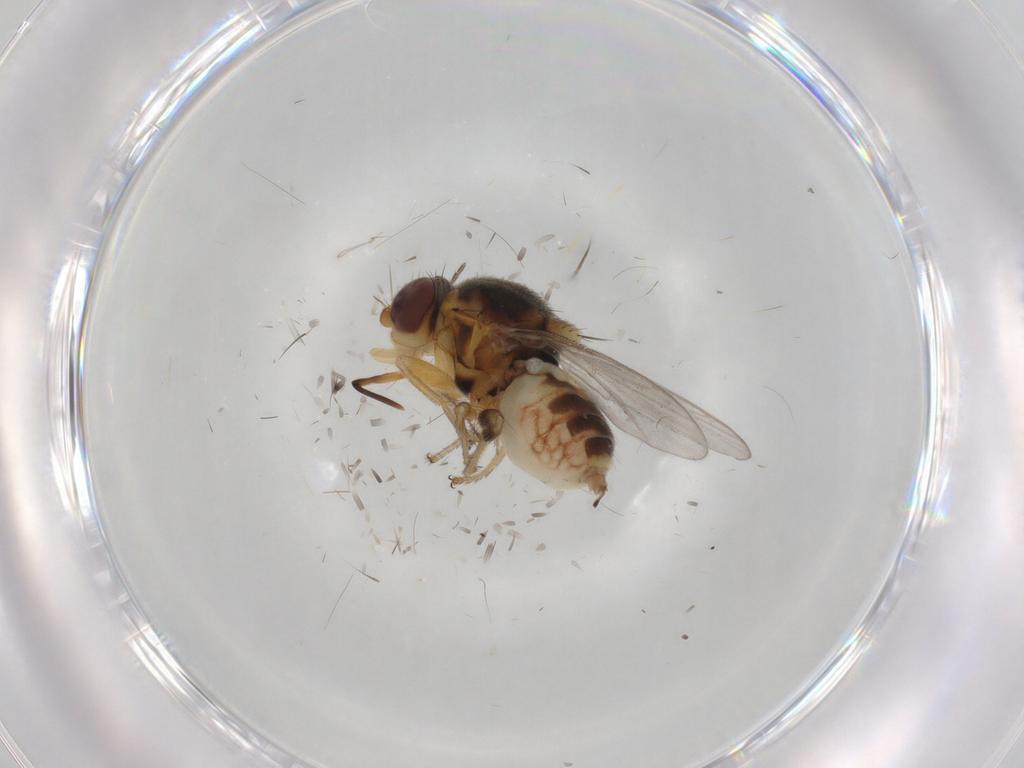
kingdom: Animalia
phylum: Arthropoda
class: Insecta
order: Diptera
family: Chloropidae
